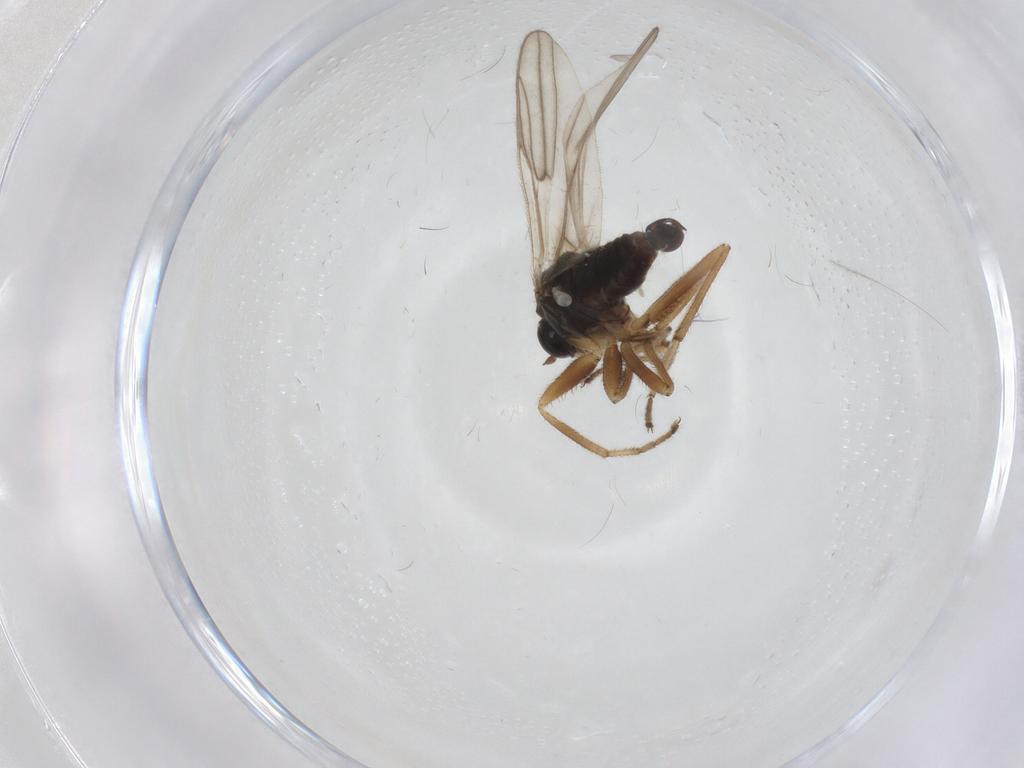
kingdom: Animalia
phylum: Arthropoda
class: Insecta
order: Diptera
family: Hybotidae
